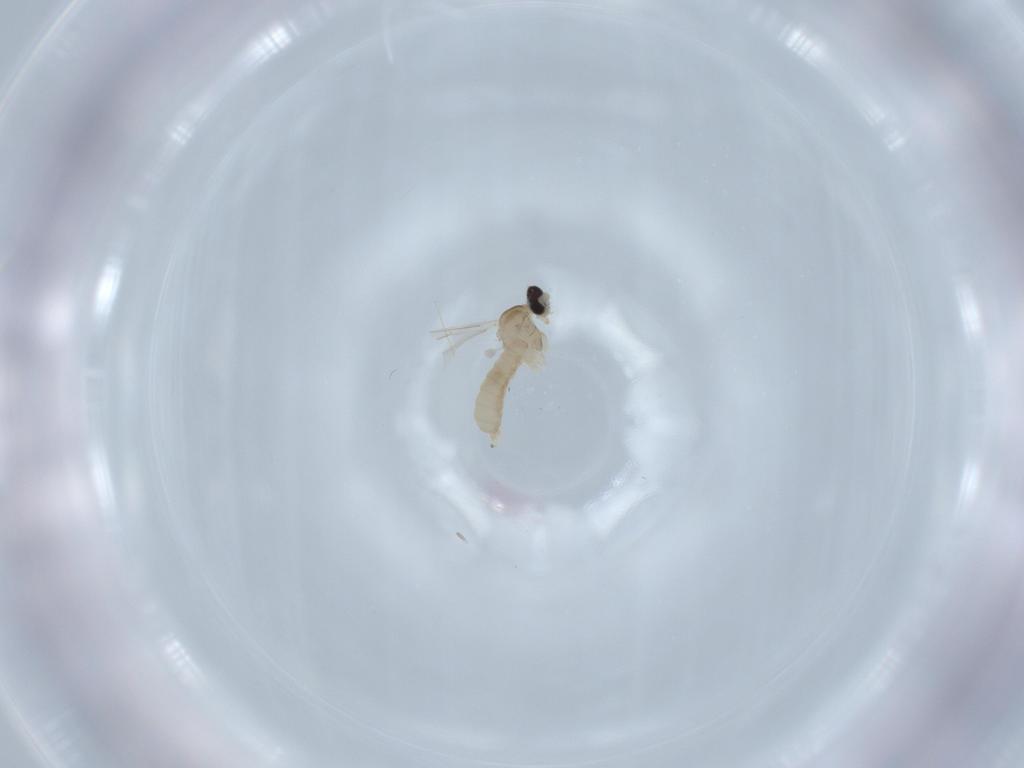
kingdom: Animalia
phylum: Arthropoda
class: Insecta
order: Diptera
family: Cecidomyiidae
